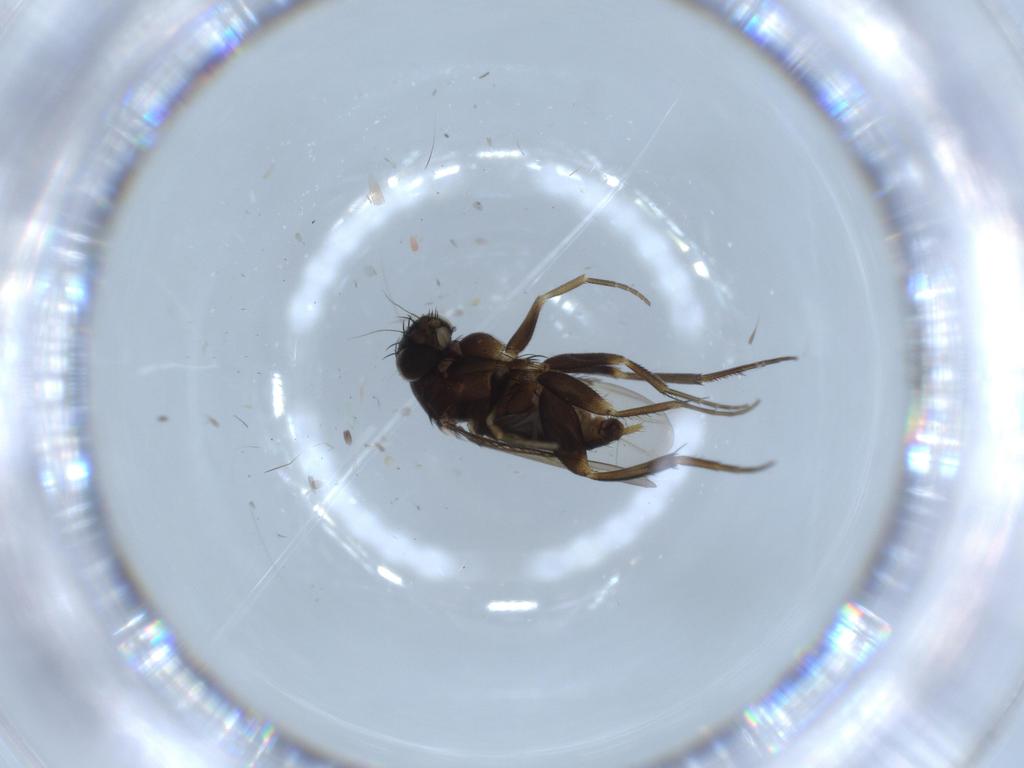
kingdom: Animalia
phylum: Arthropoda
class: Insecta
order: Diptera
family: Phoridae
